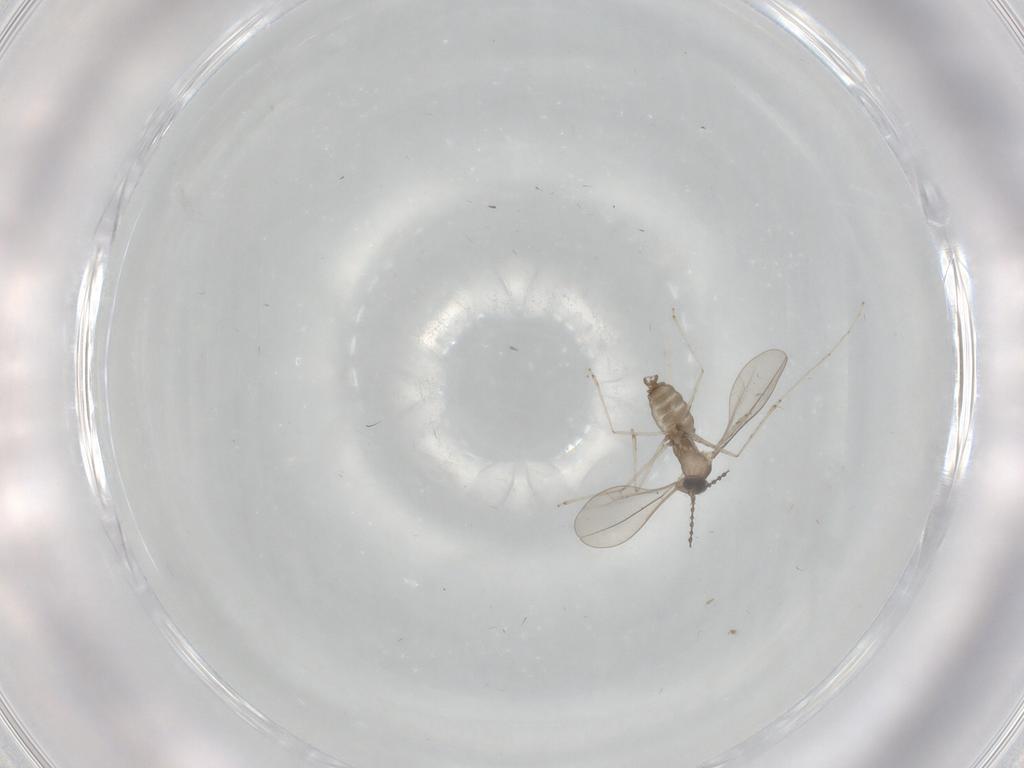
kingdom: Animalia
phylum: Arthropoda
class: Insecta
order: Diptera
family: Cecidomyiidae
